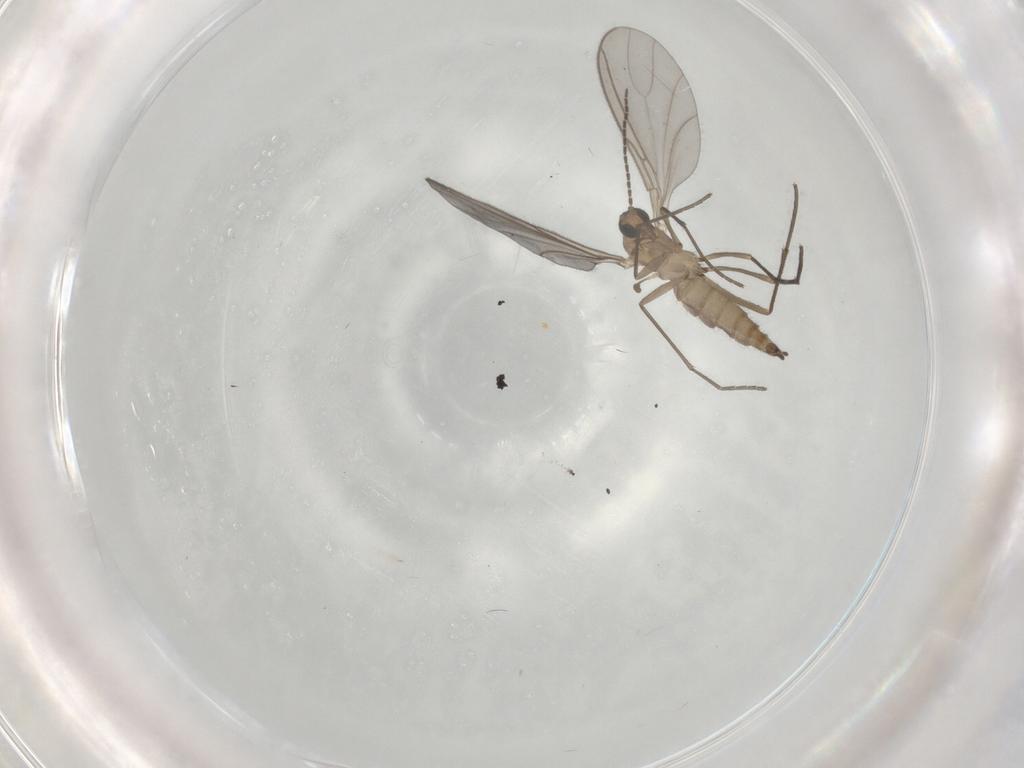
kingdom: Animalia
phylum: Arthropoda
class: Insecta
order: Diptera
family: Sciaridae
